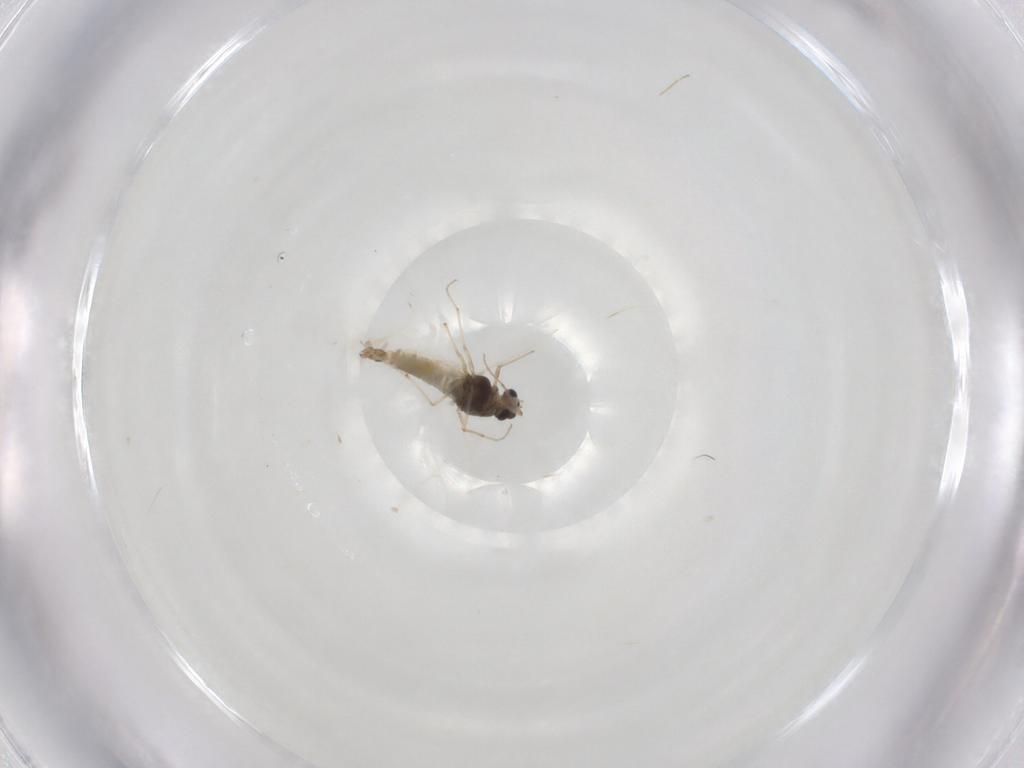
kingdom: Animalia
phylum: Arthropoda
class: Insecta
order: Diptera
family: Chironomidae
